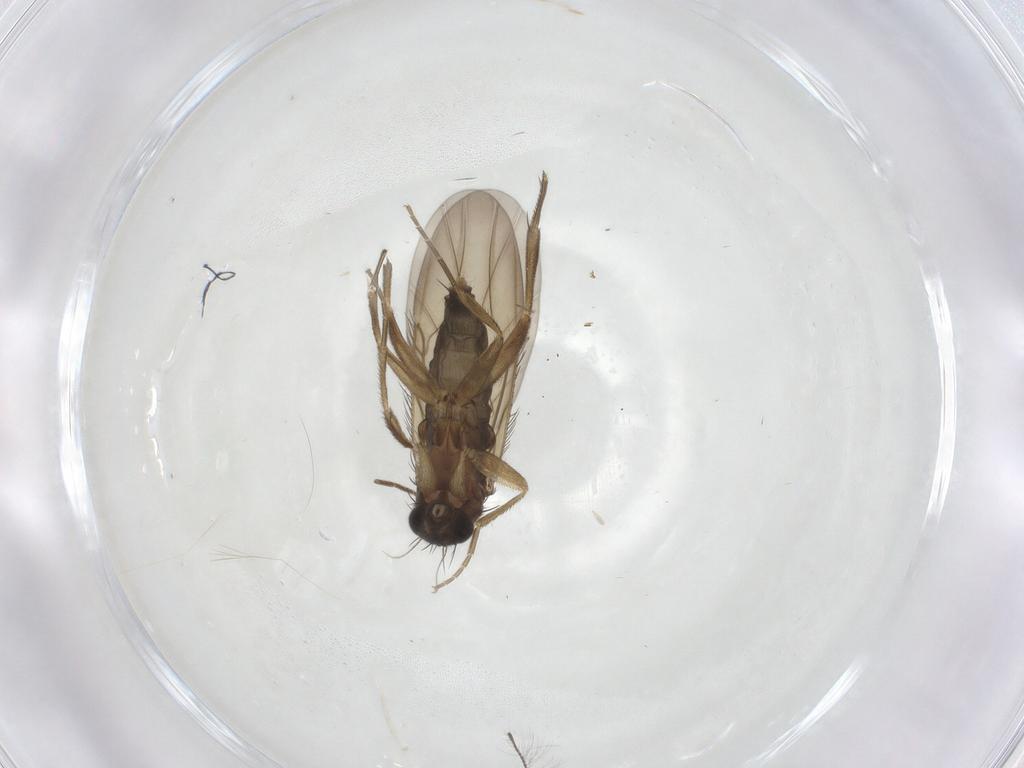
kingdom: Animalia
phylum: Arthropoda
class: Insecta
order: Diptera
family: Phoridae
